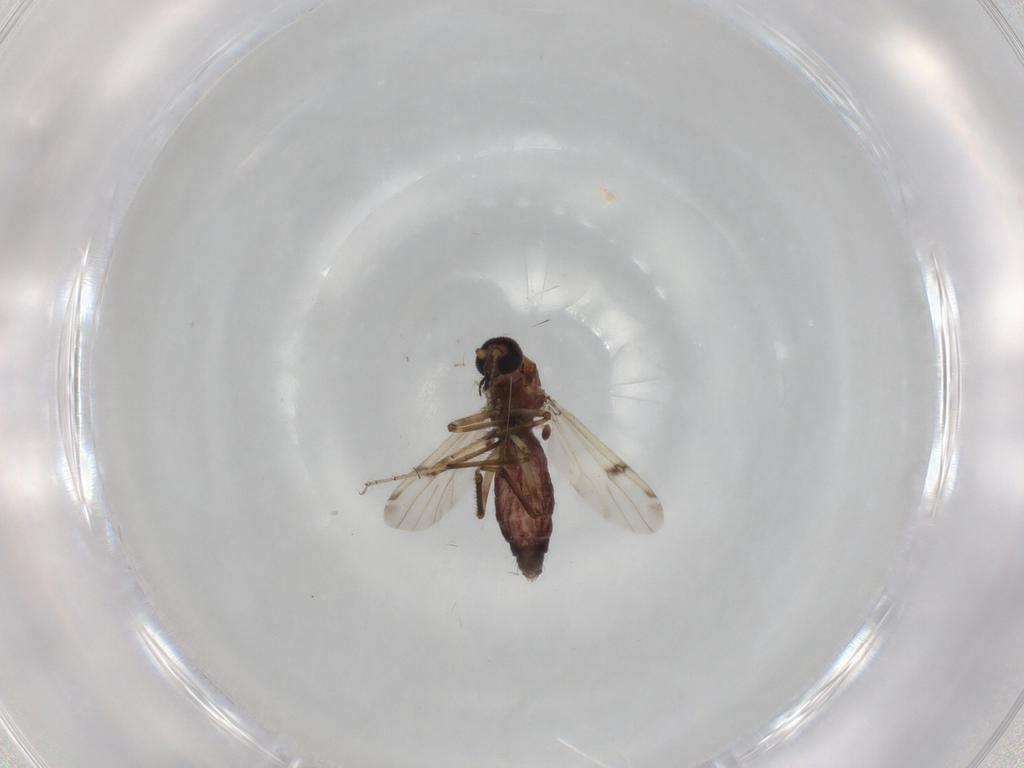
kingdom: Animalia
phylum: Arthropoda
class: Insecta
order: Diptera
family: Ceratopogonidae
